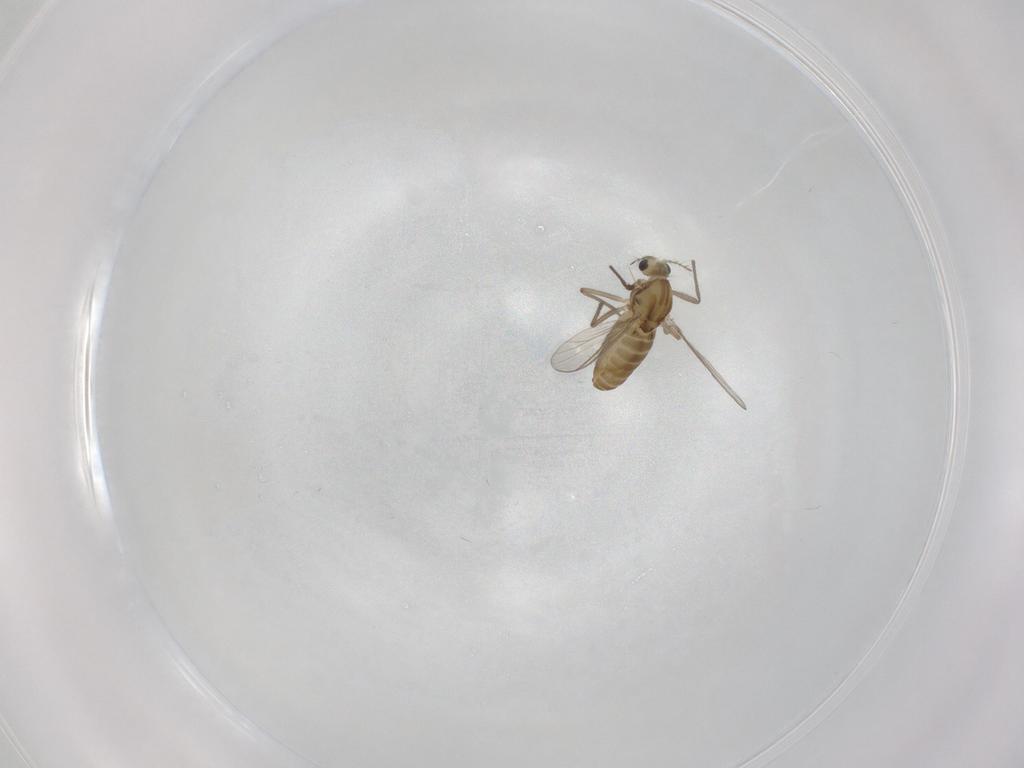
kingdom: Animalia
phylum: Arthropoda
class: Insecta
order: Diptera
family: Chironomidae
